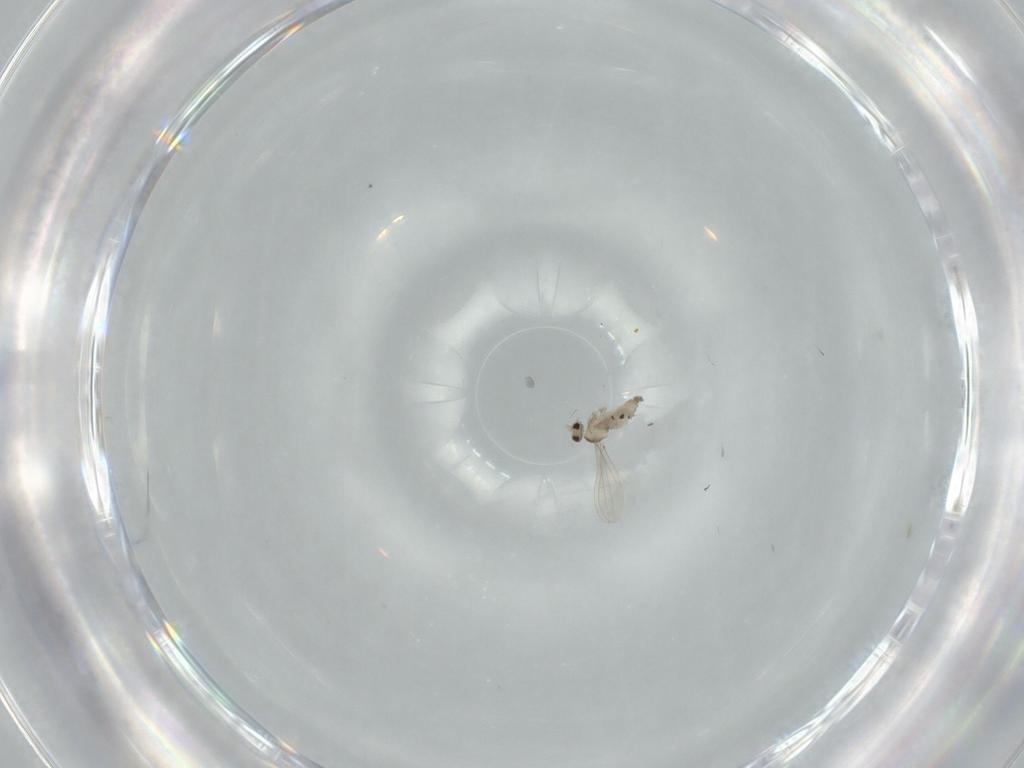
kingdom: Animalia
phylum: Arthropoda
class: Insecta
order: Diptera
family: Cecidomyiidae
